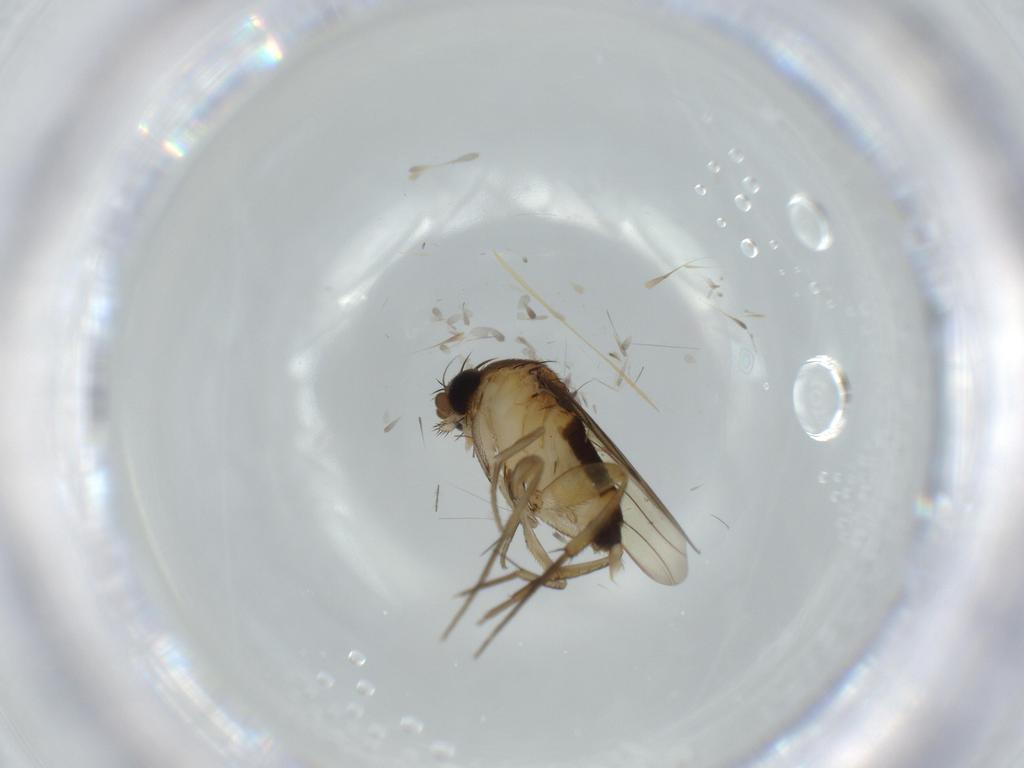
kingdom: Animalia
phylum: Arthropoda
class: Insecta
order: Diptera
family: Cecidomyiidae
